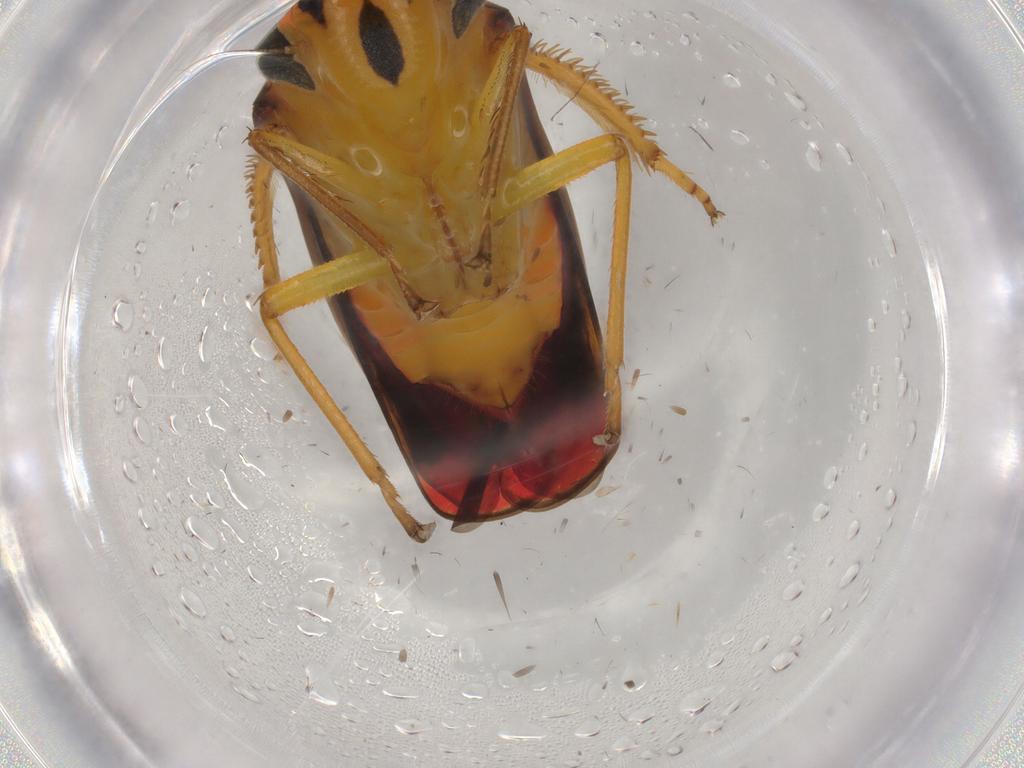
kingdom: Animalia
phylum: Arthropoda
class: Insecta
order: Hemiptera
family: Cicadellidae
